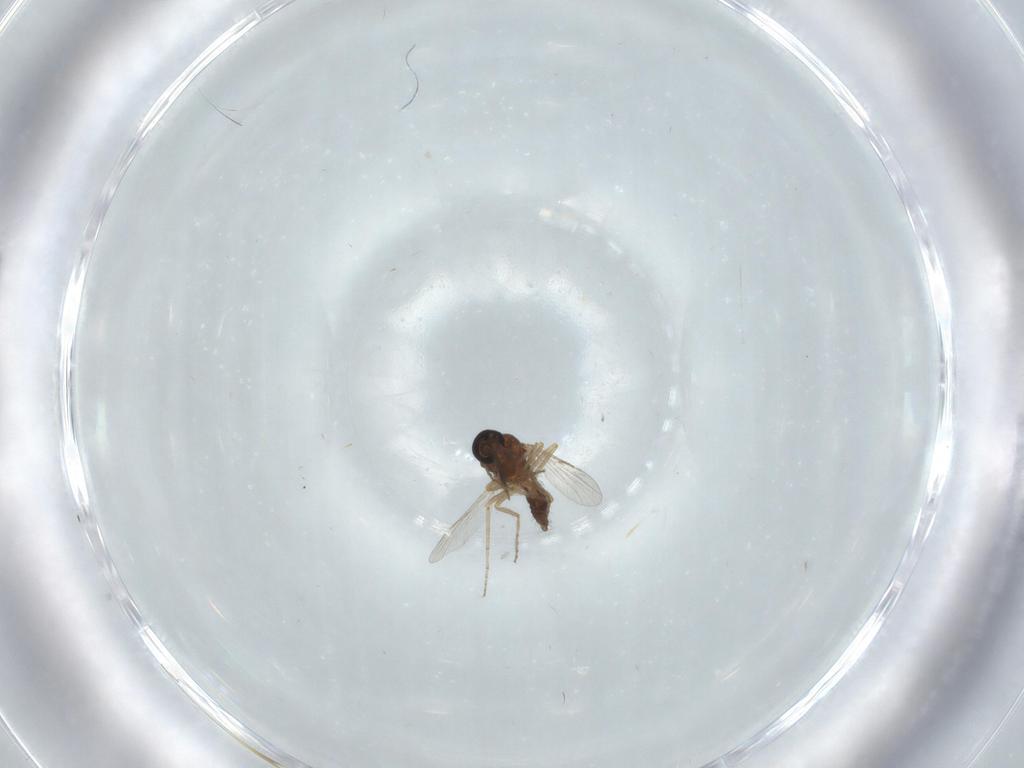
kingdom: Animalia
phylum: Arthropoda
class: Insecta
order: Diptera
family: Ceratopogonidae
